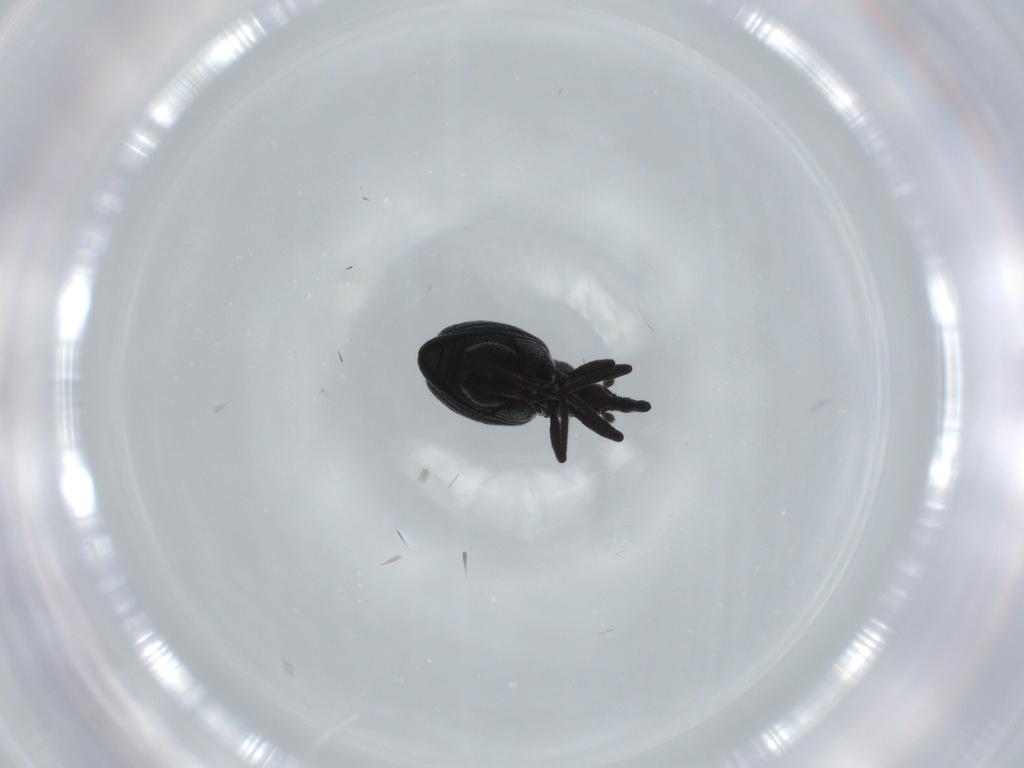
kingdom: Animalia
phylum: Arthropoda
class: Insecta
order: Coleoptera
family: Brentidae
